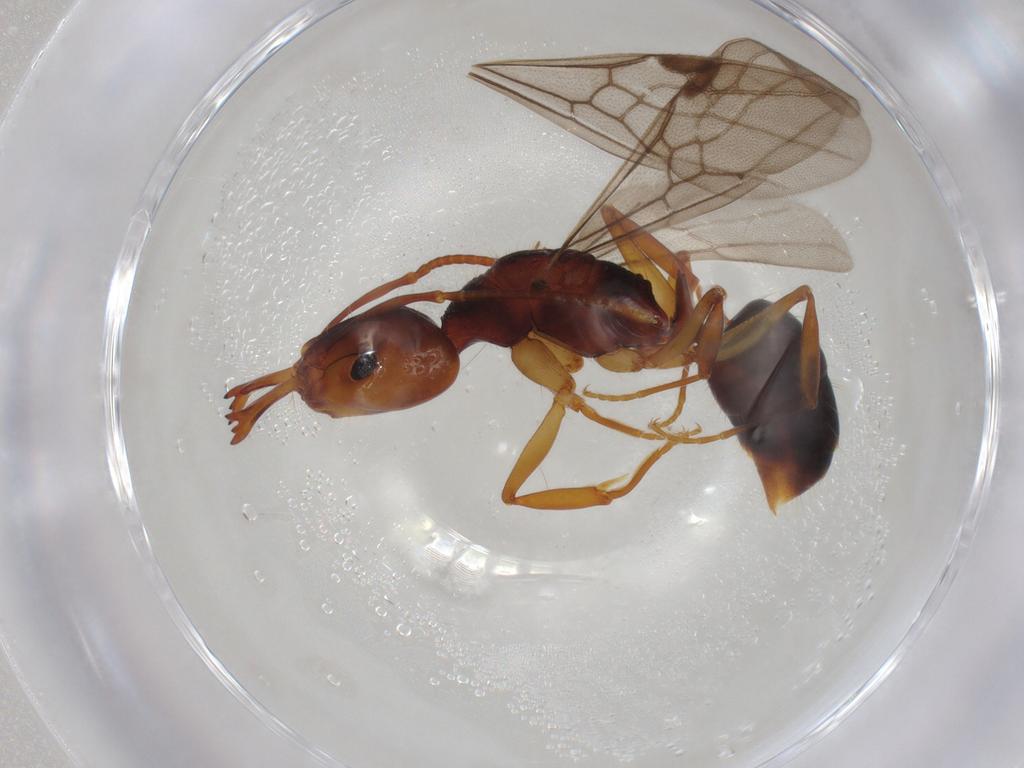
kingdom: Animalia
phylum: Arthropoda
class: Insecta
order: Hymenoptera
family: Formicidae
